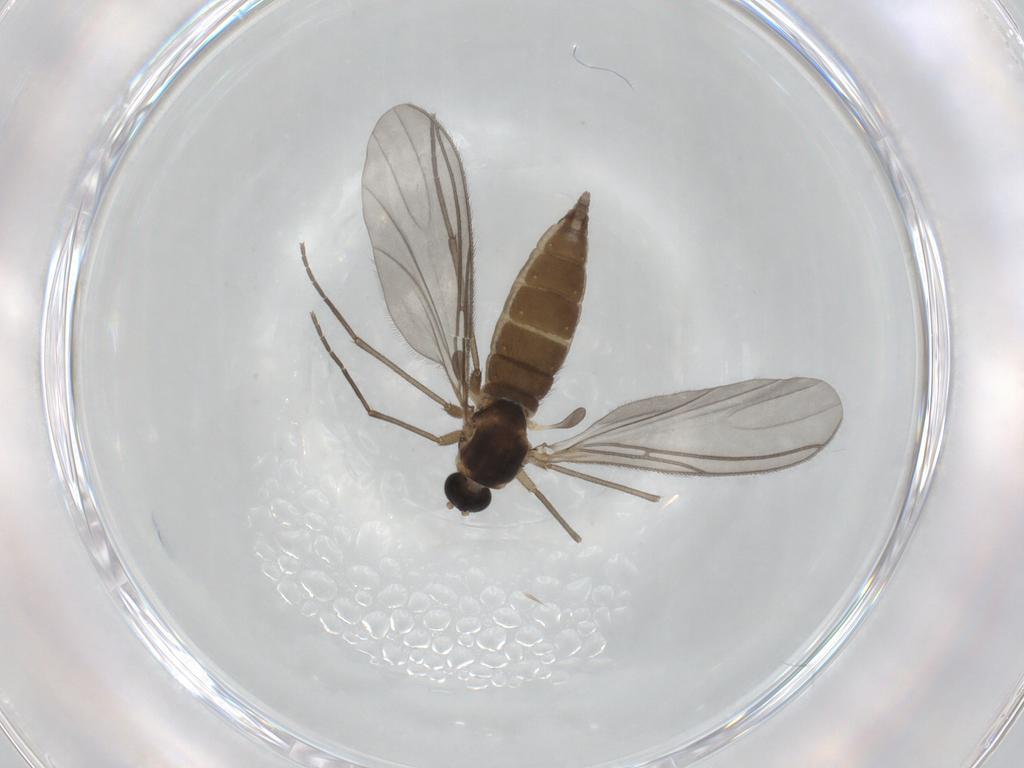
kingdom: Animalia
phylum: Arthropoda
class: Insecta
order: Diptera
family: Sciaridae
